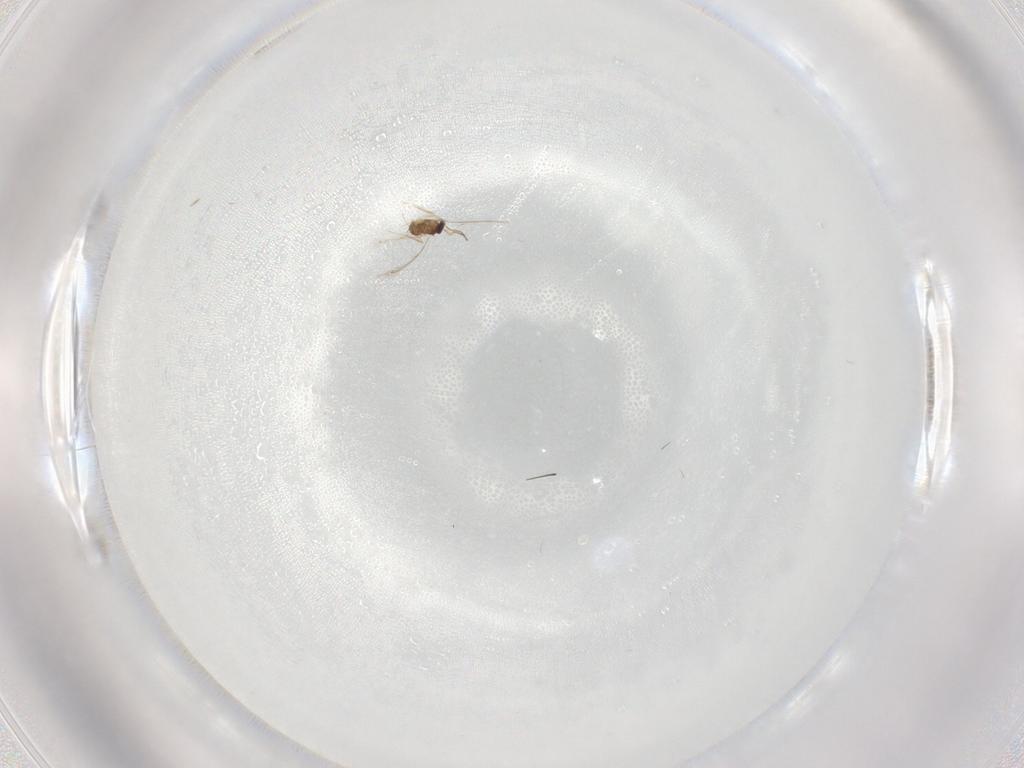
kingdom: Animalia
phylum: Arthropoda
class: Insecta
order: Hymenoptera
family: Mymaridae
